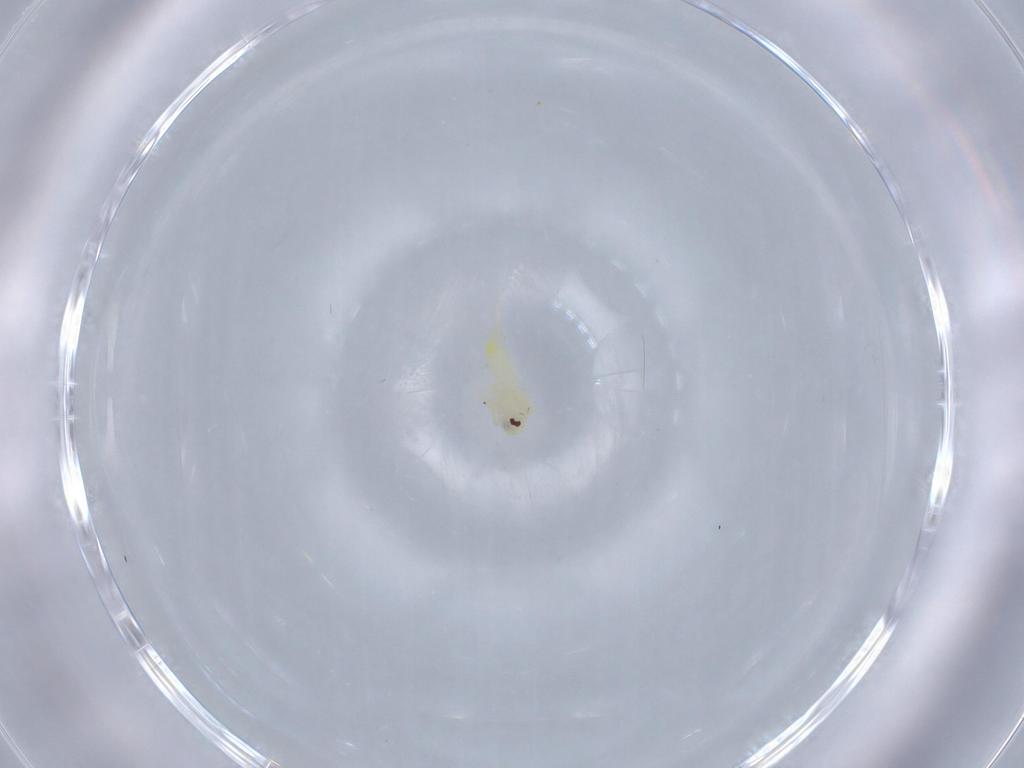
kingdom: Animalia
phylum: Arthropoda
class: Insecta
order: Hemiptera
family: Aleyrodidae
